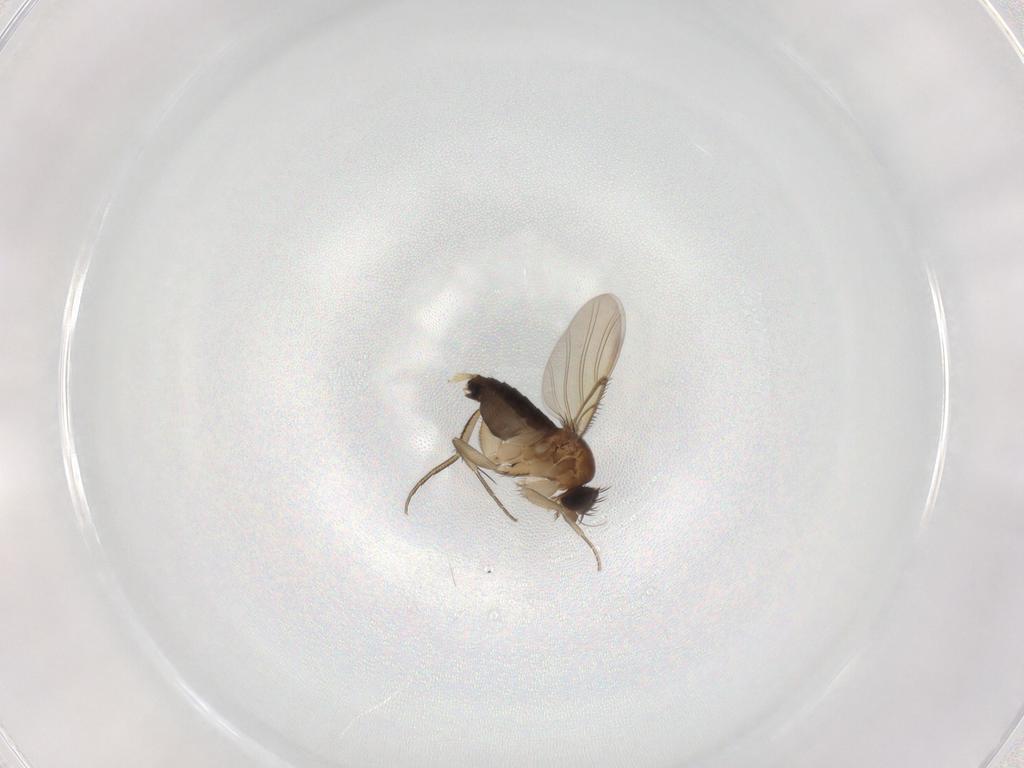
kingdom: Animalia
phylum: Arthropoda
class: Insecta
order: Diptera
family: Phoridae
